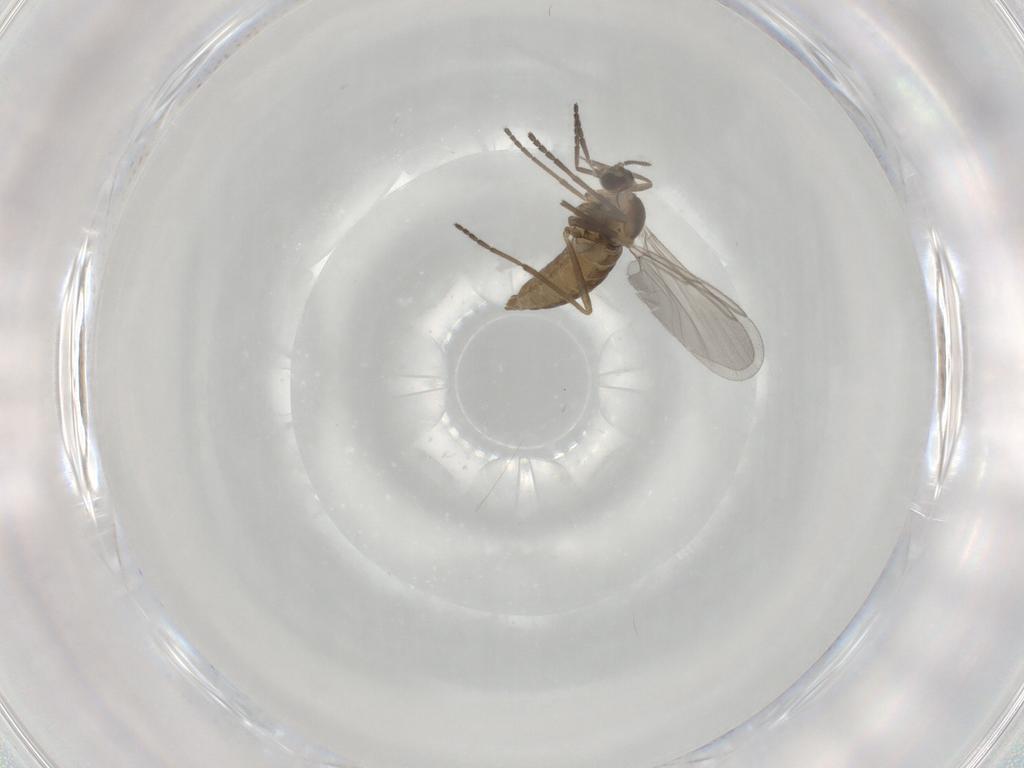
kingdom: Animalia
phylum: Arthropoda
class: Insecta
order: Diptera
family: Cecidomyiidae
